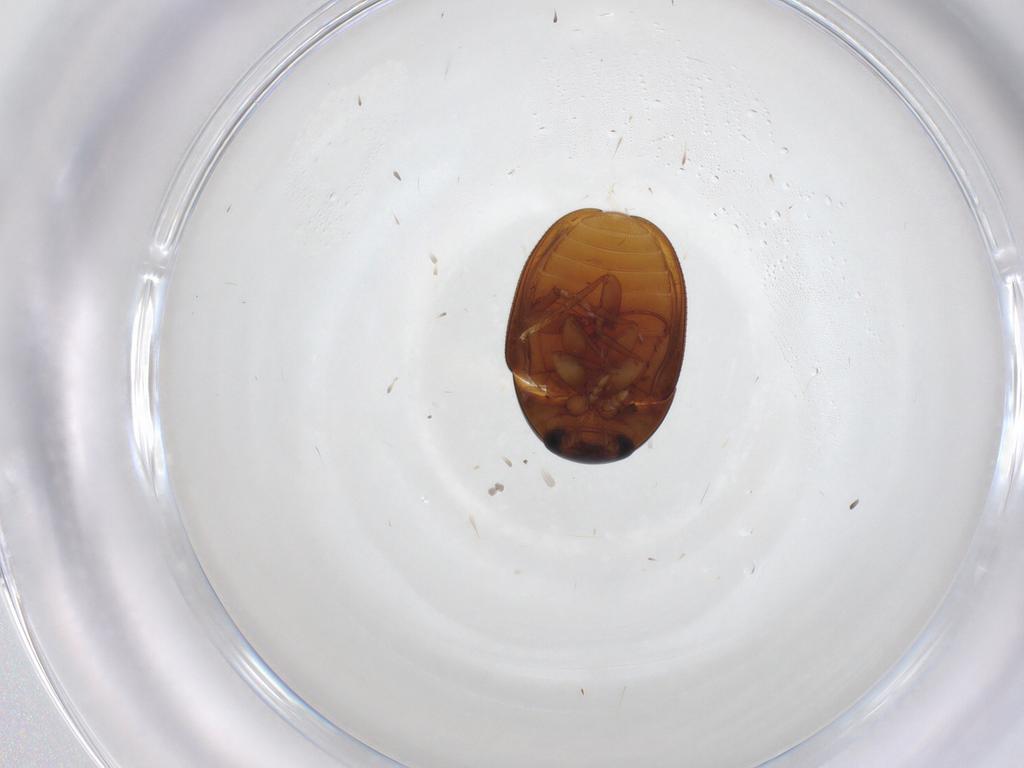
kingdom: Animalia
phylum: Arthropoda
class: Insecta
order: Coleoptera
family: Phalacridae
